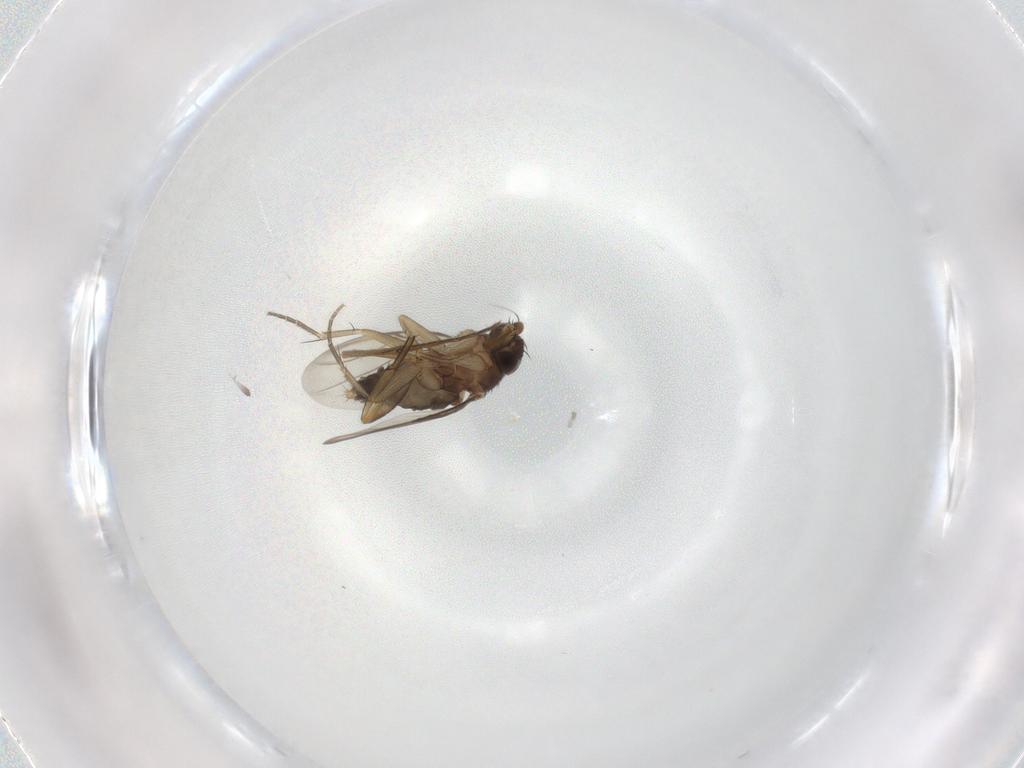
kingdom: Animalia
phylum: Arthropoda
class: Insecta
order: Diptera
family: Phoridae
